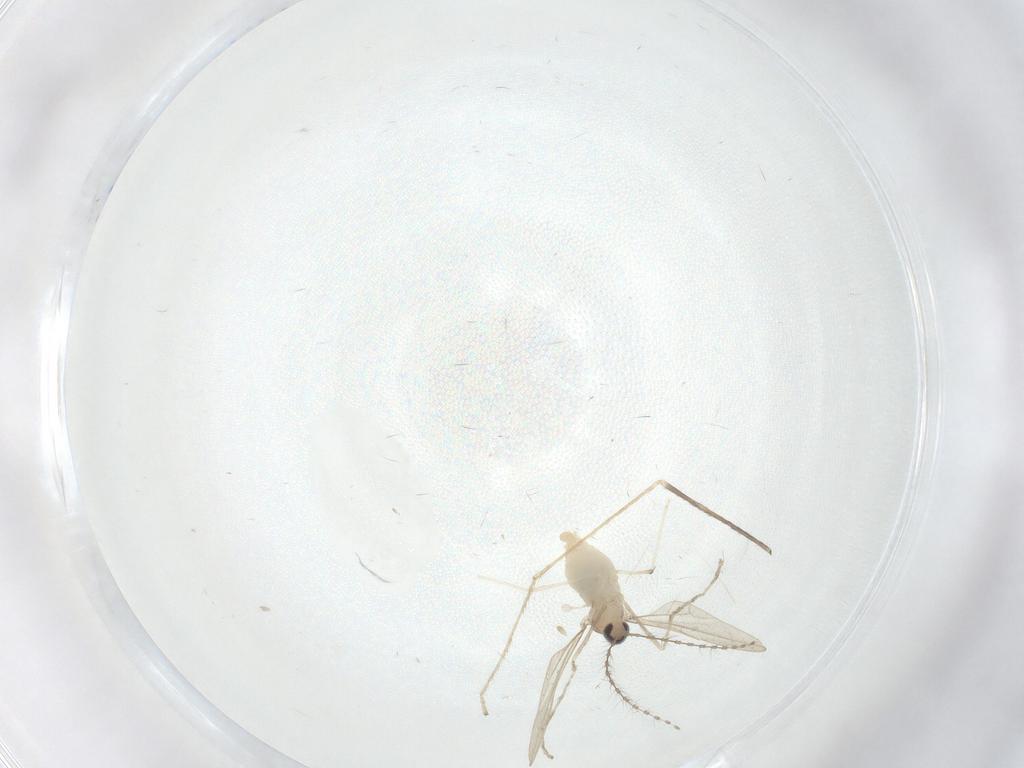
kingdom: Animalia
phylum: Arthropoda
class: Insecta
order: Diptera
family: Cecidomyiidae
